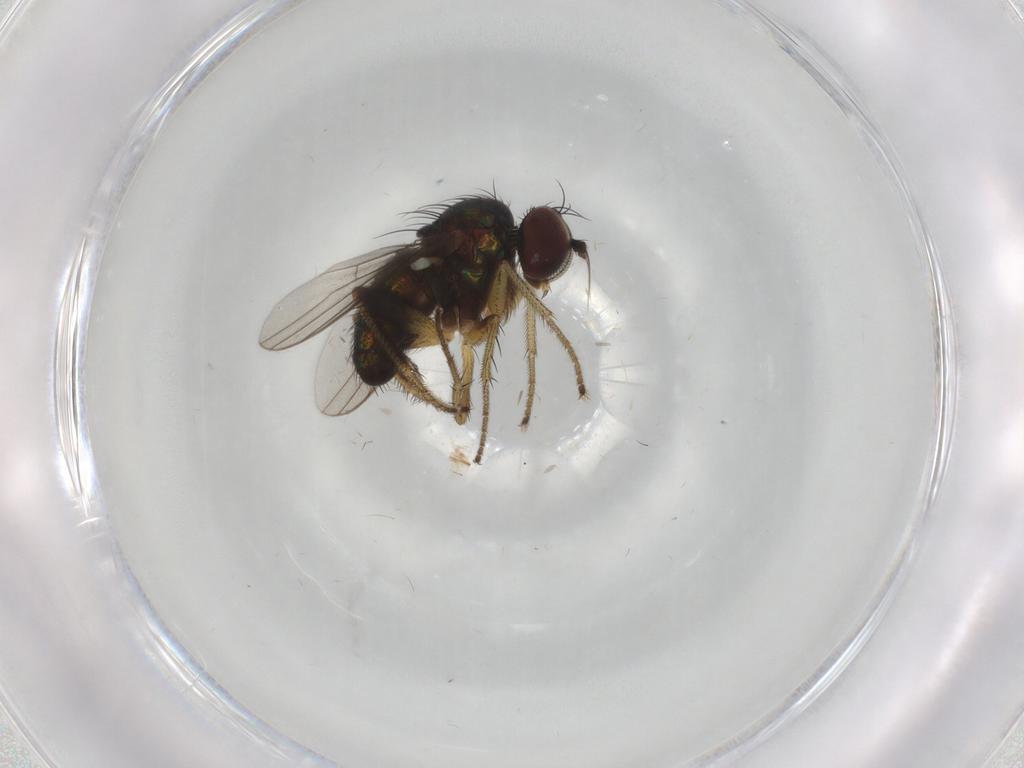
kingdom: Animalia
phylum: Arthropoda
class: Insecta
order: Diptera
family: Dolichopodidae
